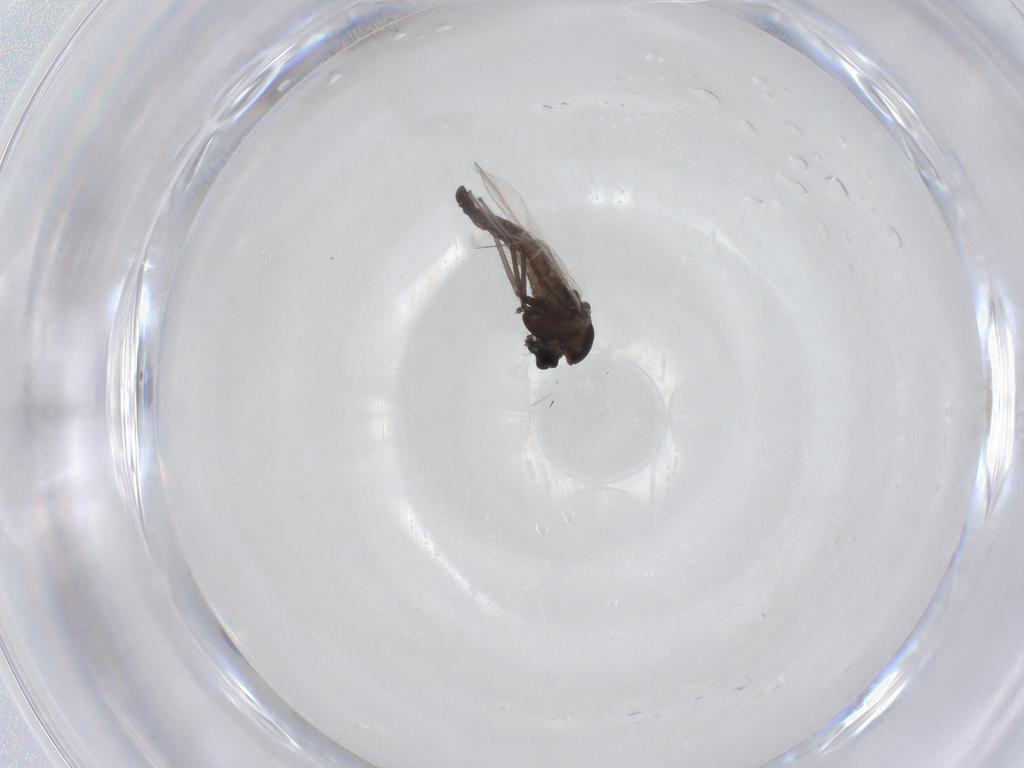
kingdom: Animalia
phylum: Arthropoda
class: Insecta
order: Diptera
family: Chironomidae
